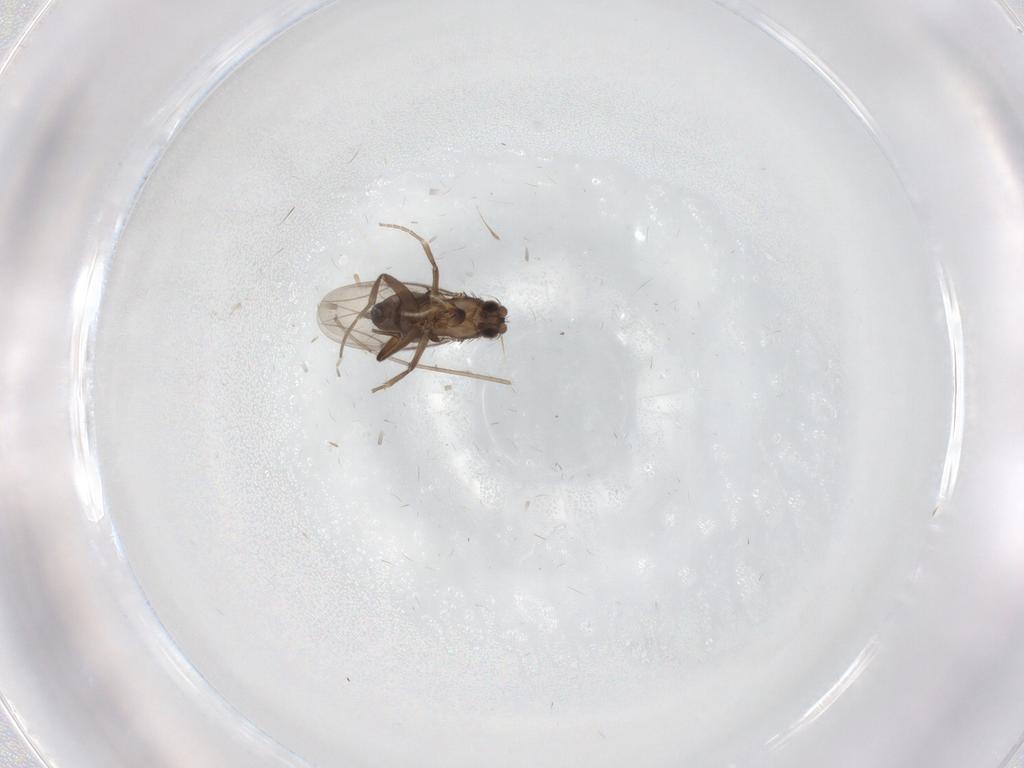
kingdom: Animalia
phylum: Arthropoda
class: Insecta
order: Diptera
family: Phoridae
